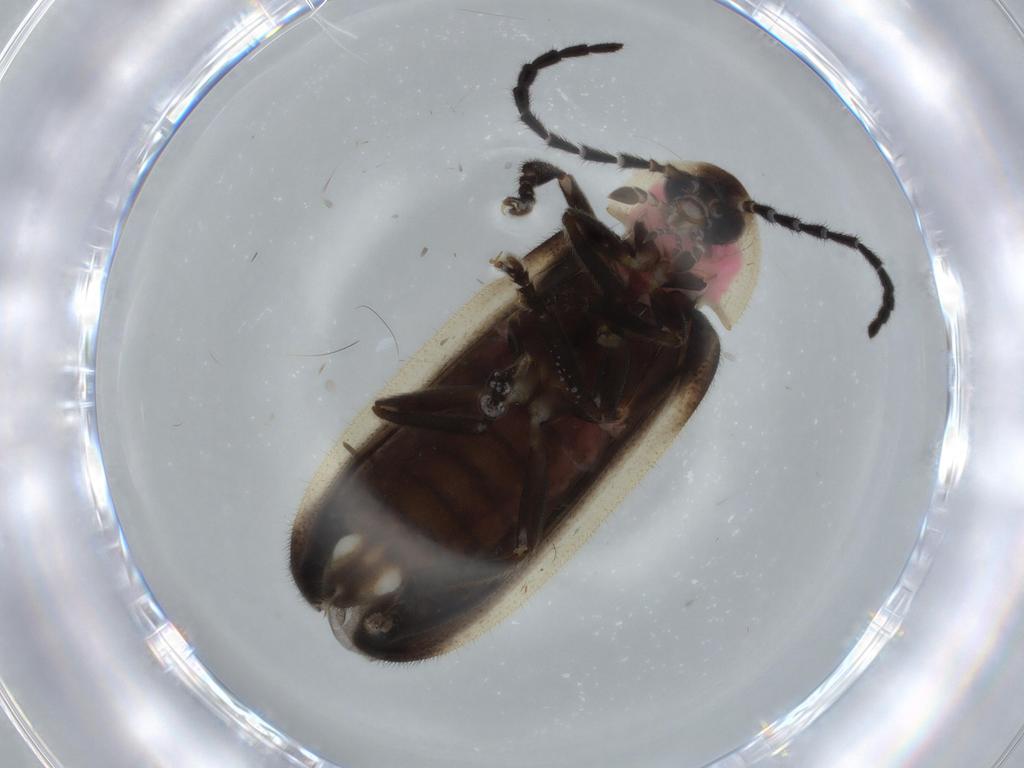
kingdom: Animalia
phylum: Arthropoda
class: Insecta
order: Coleoptera
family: Lampyridae
